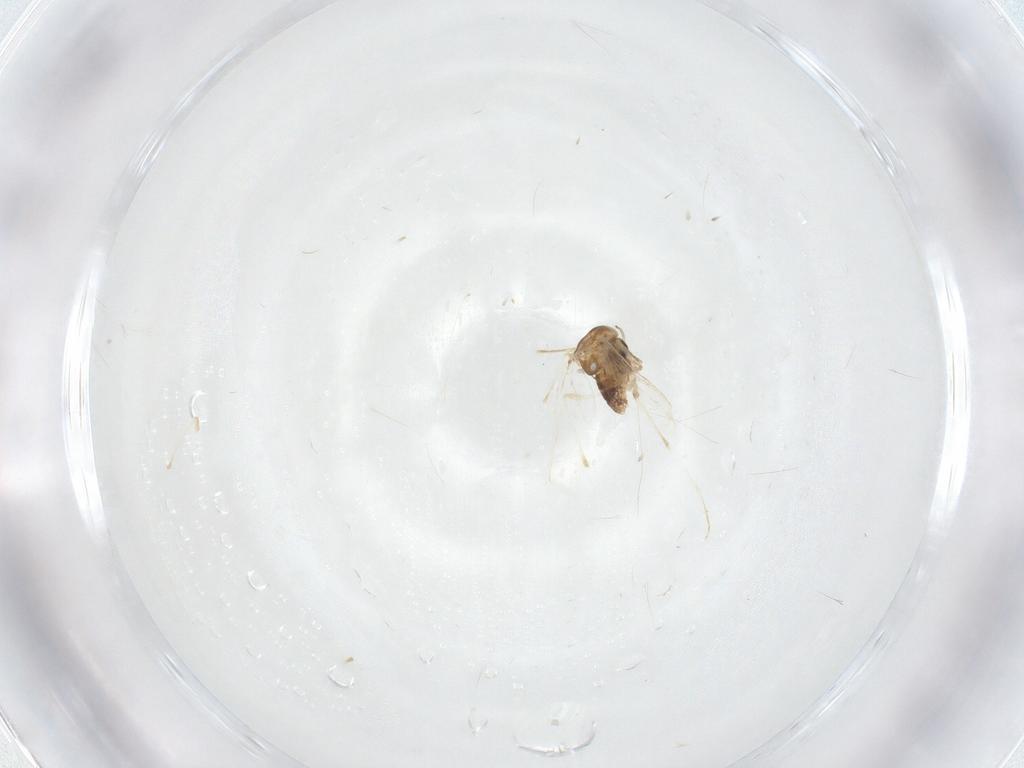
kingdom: Animalia
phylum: Arthropoda
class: Insecta
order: Diptera
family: Chironomidae
